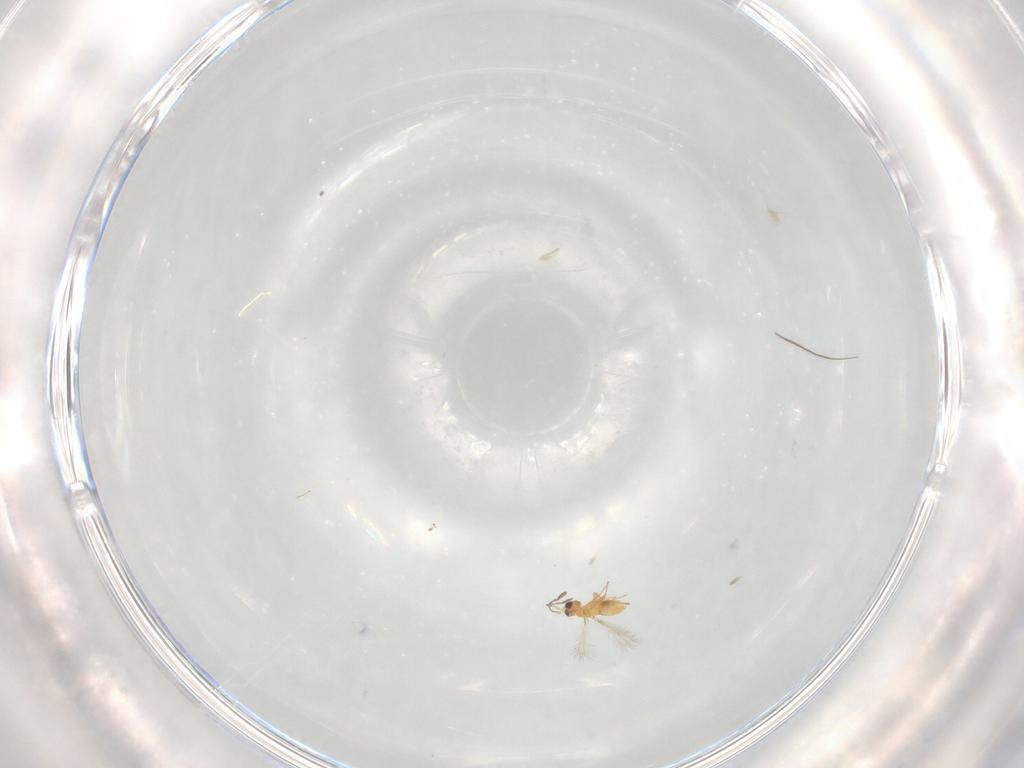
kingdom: Animalia
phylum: Arthropoda
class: Insecta
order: Hymenoptera
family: Mymaridae
